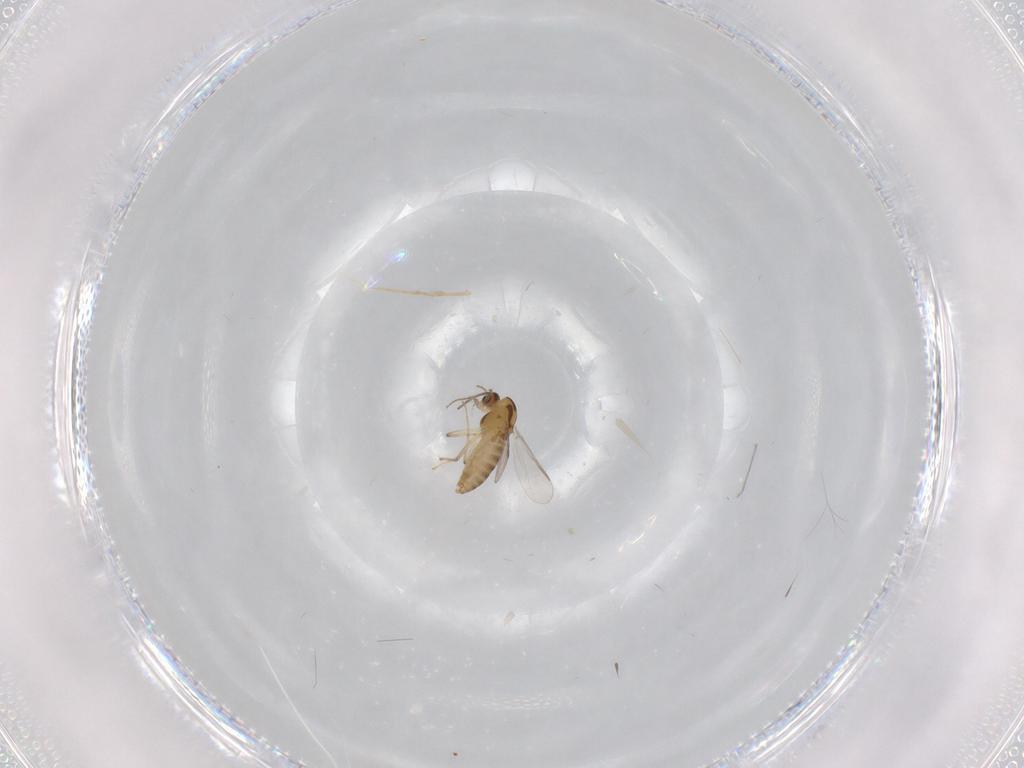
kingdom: Animalia
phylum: Arthropoda
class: Insecta
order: Diptera
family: Chironomidae
